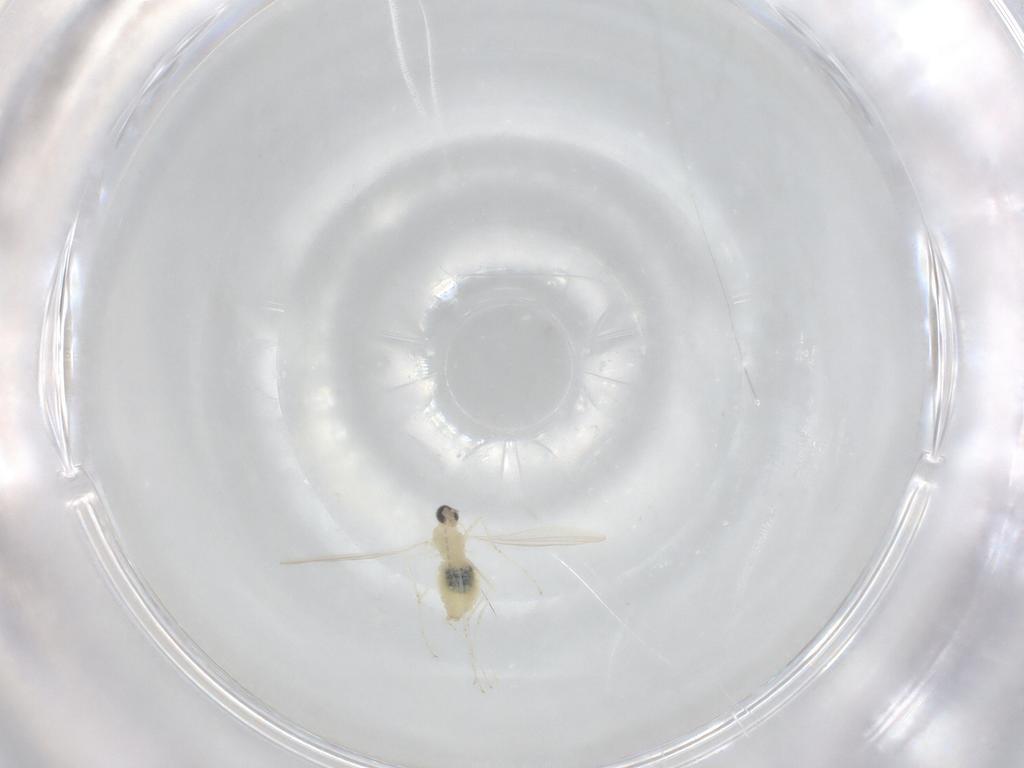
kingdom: Animalia
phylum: Arthropoda
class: Insecta
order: Diptera
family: Cecidomyiidae
